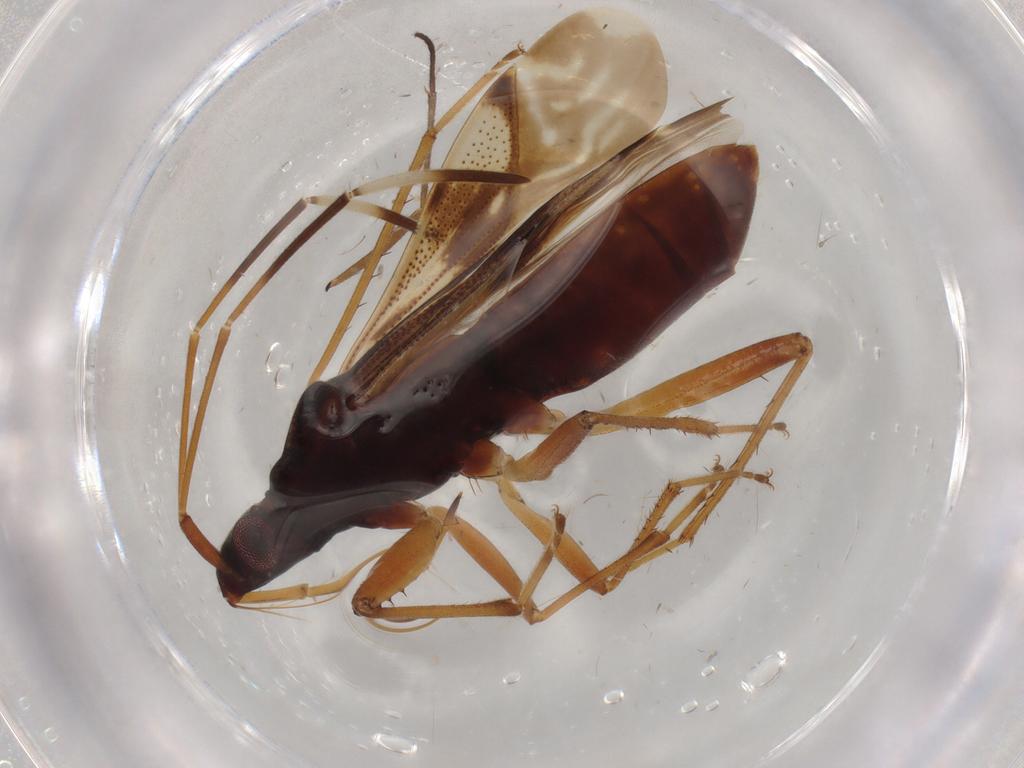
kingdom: Animalia
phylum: Arthropoda
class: Insecta
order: Hemiptera
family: Rhyparochromidae
